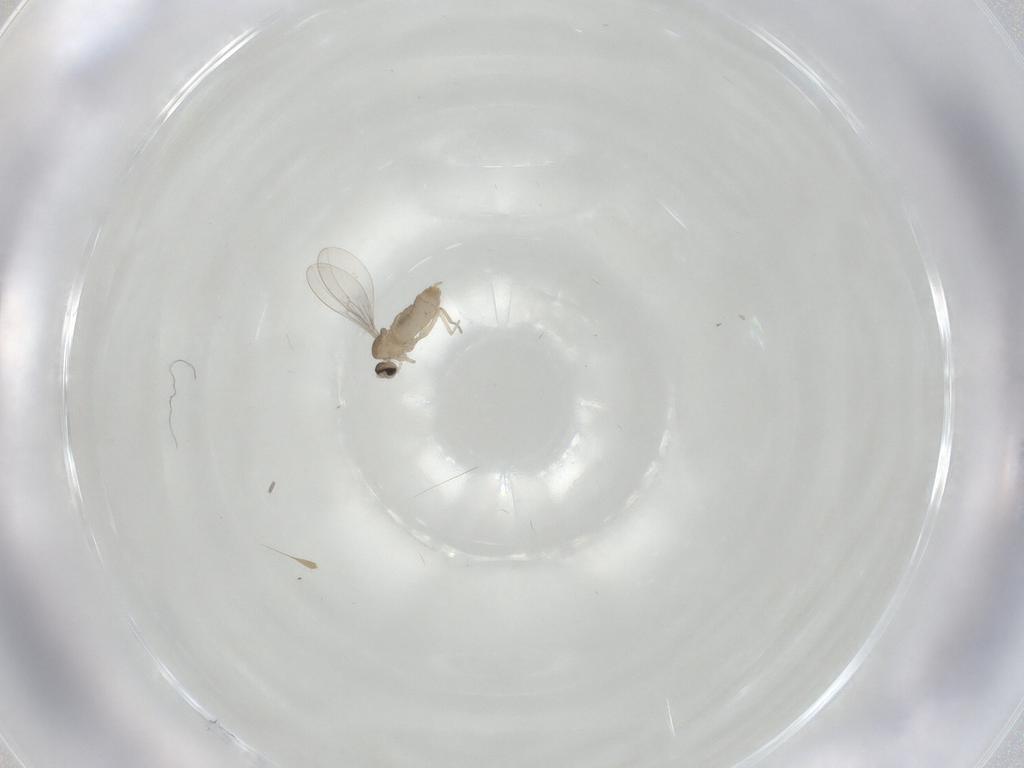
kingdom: Animalia
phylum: Arthropoda
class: Insecta
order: Diptera
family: Cecidomyiidae
